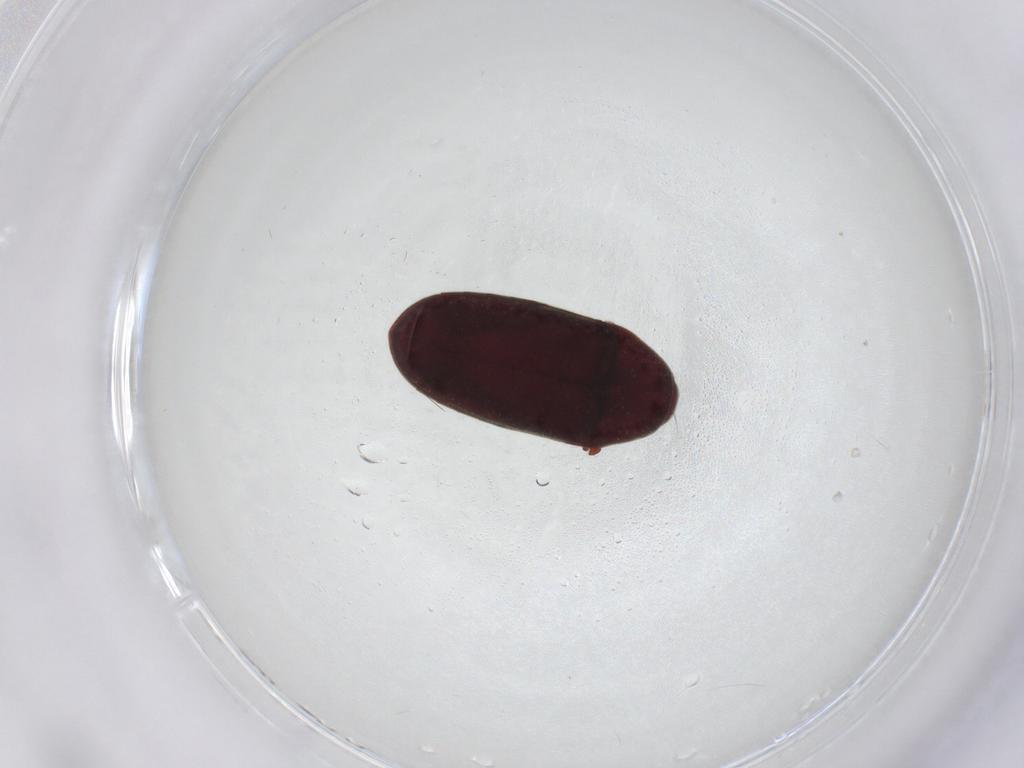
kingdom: Animalia
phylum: Arthropoda
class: Insecta
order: Coleoptera
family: Throscidae
